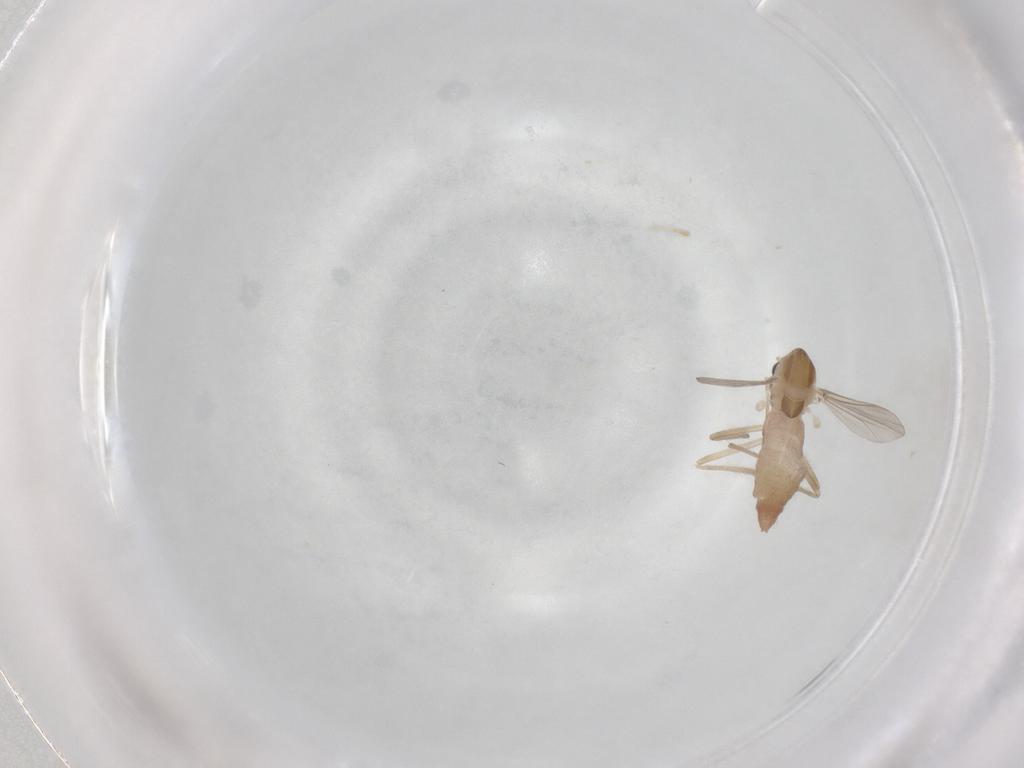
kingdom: Animalia
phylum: Arthropoda
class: Insecta
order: Diptera
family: Chironomidae
